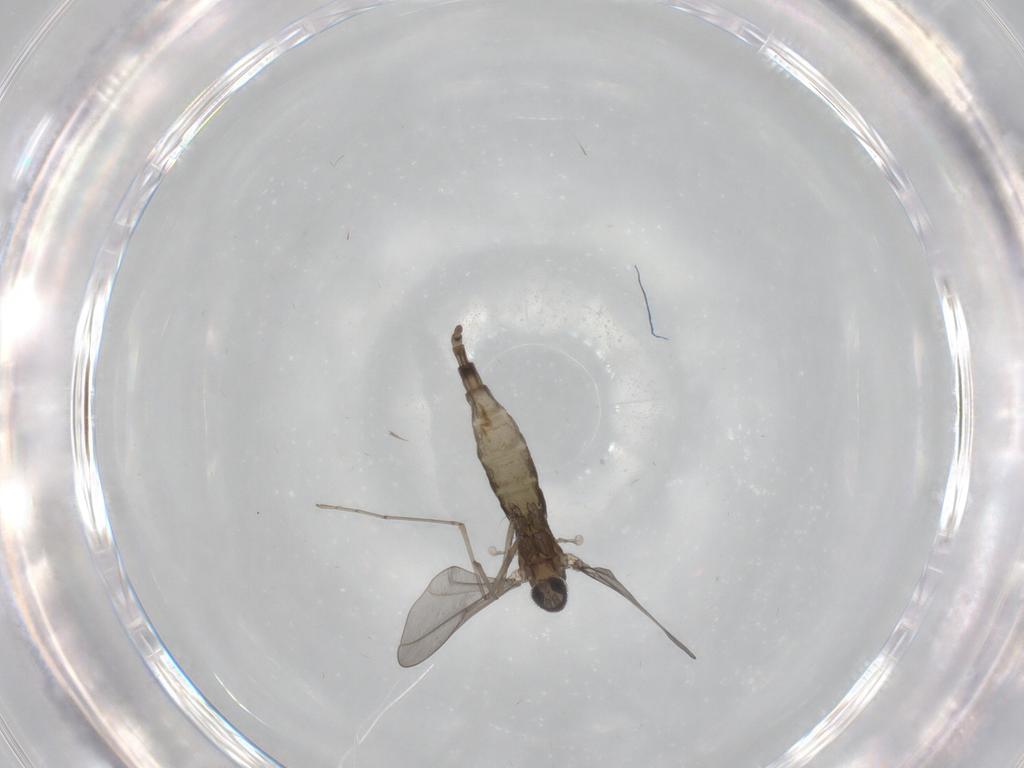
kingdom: Animalia
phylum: Arthropoda
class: Insecta
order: Diptera
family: Cecidomyiidae
